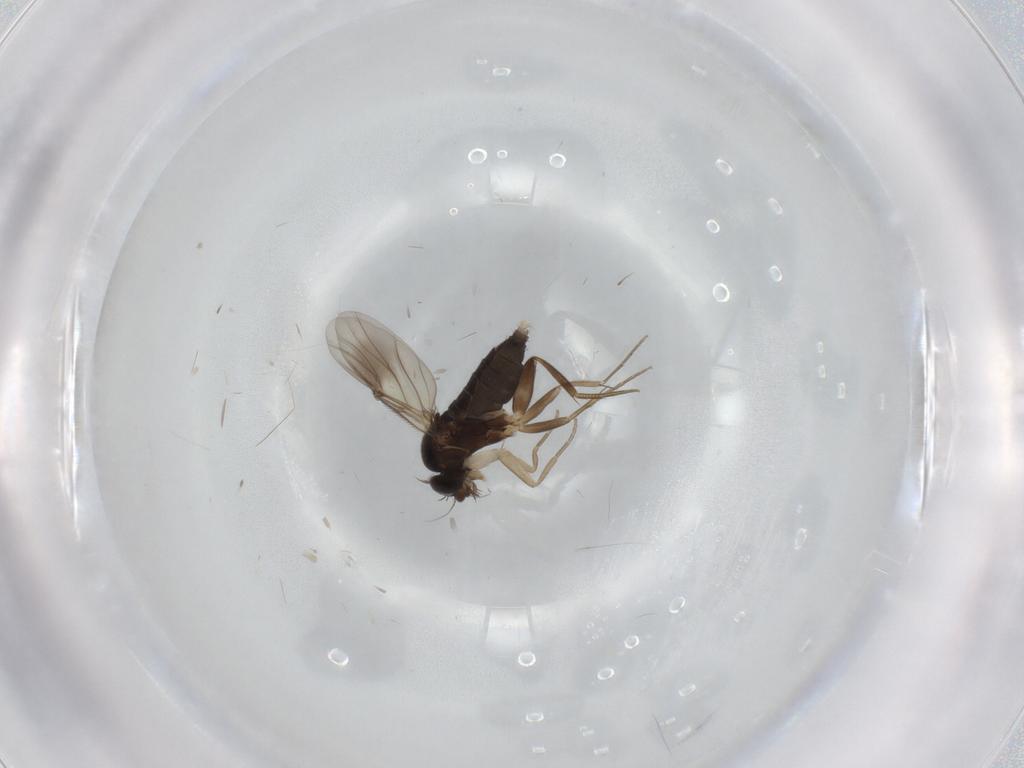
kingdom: Animalia
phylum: Arthropoda
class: Insecta
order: Diptera
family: Phoridae
